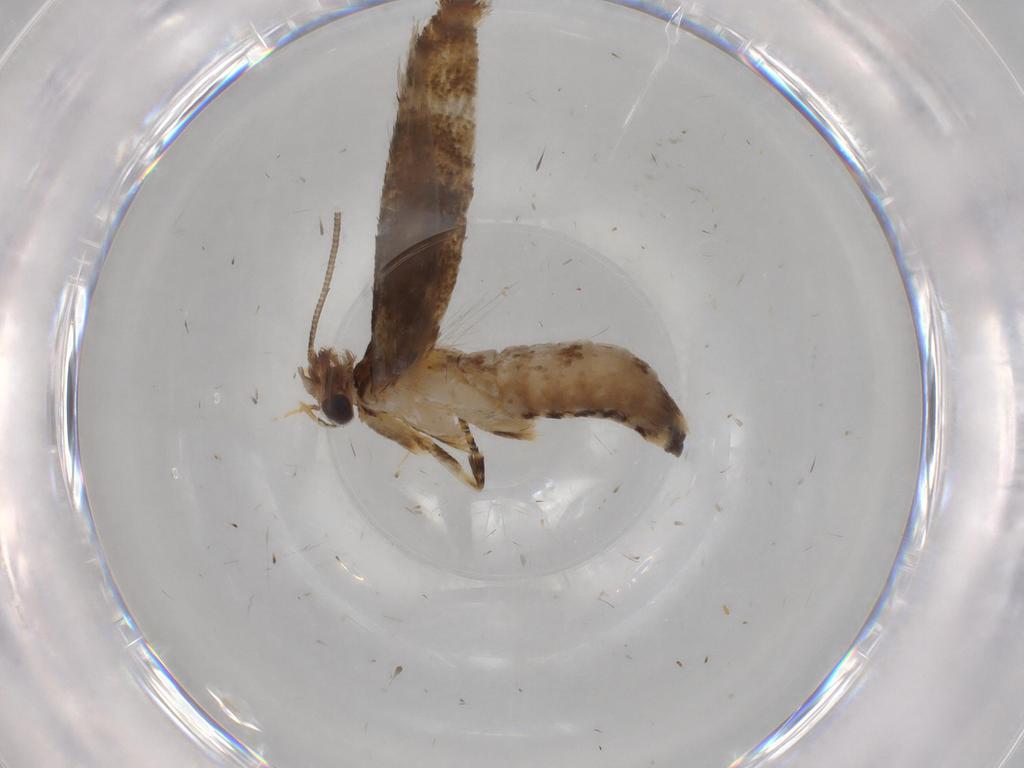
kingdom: Animalia
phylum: Arthropoda
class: Insecta
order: Lepidoptera
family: Tineidae
